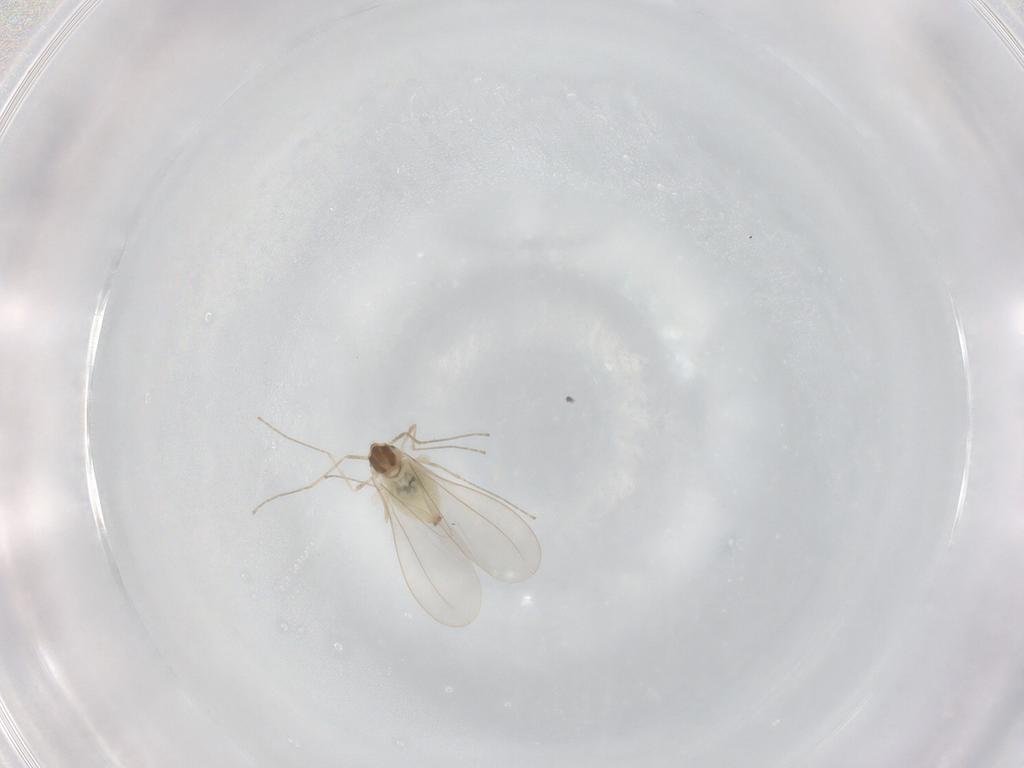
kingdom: Animalia
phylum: Arthropoda
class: Insecta
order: Diptera
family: Cecidomyiidae
